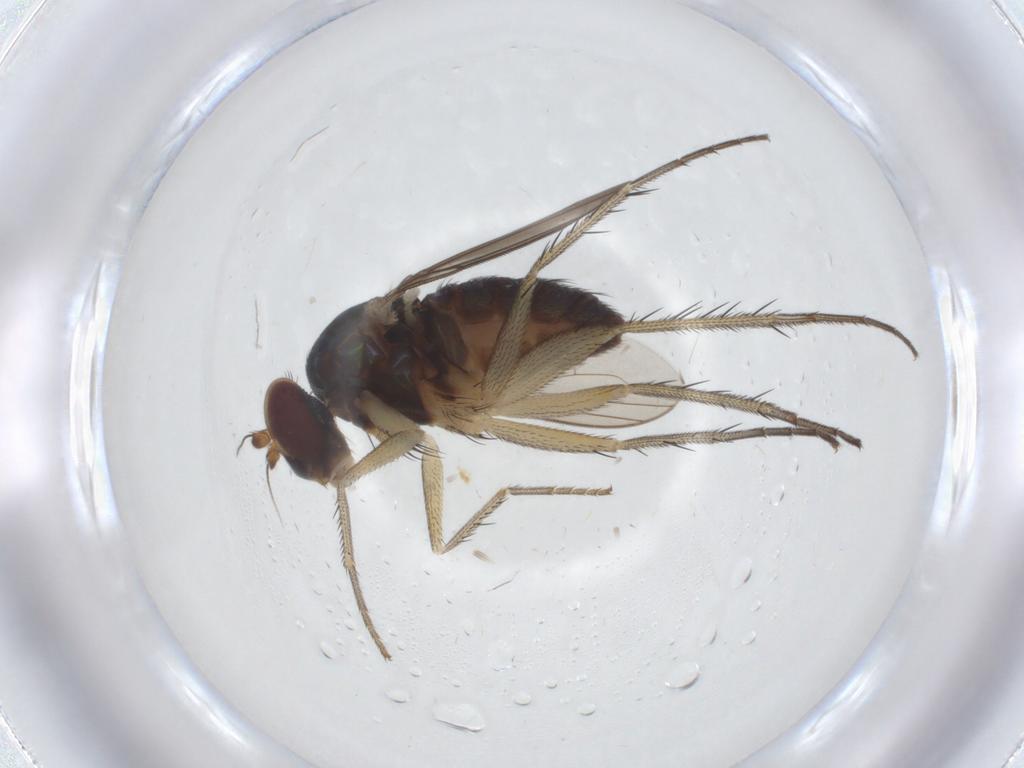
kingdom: Animalia
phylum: Arthropoda
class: Insecta
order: Diptera
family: Dolichopodidae
